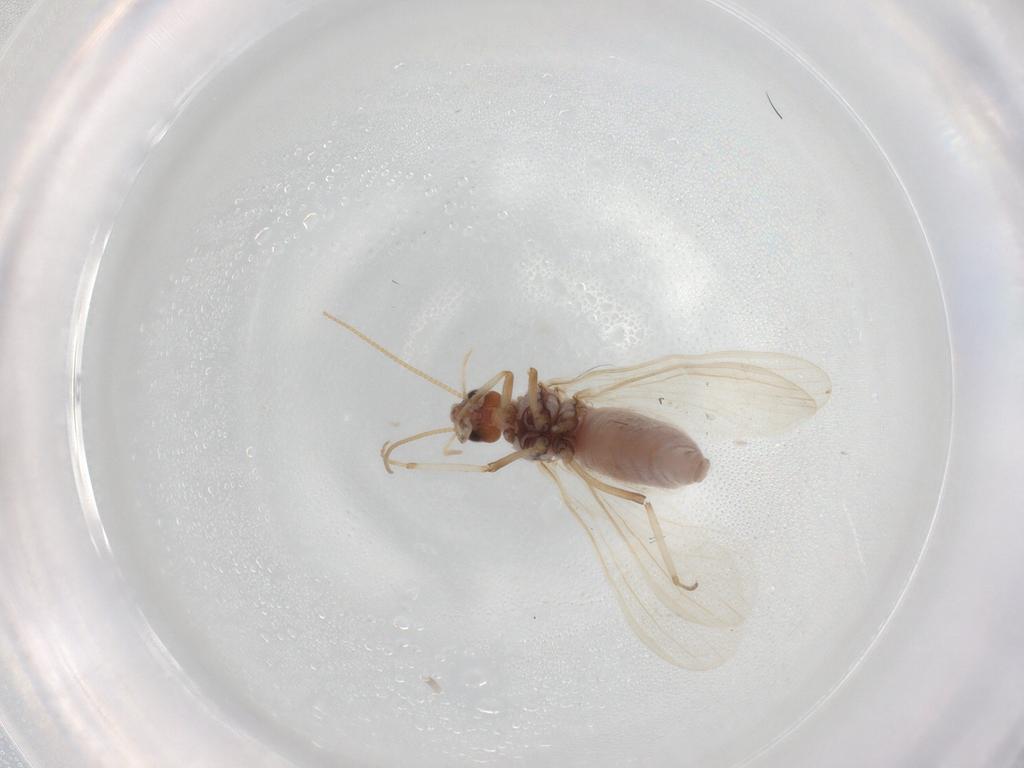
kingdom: Animalia
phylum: Arthropoda
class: Insecta
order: Neuroptera
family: Coniopterygidae
